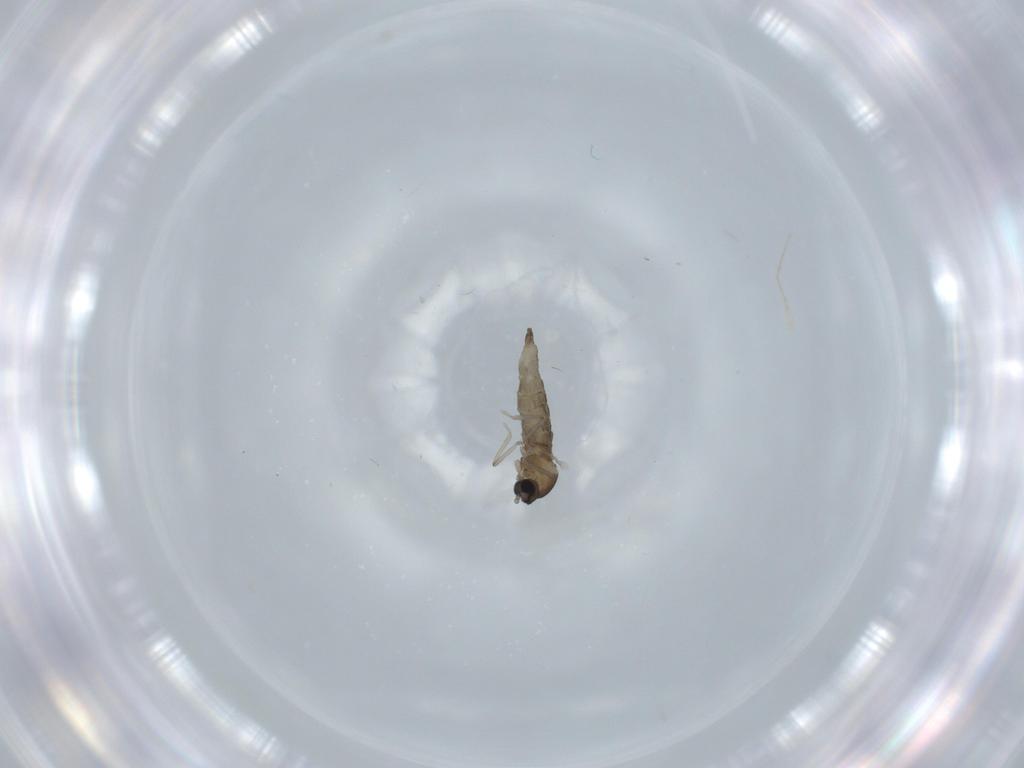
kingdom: Animalia
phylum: Arthropoda
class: Insecta
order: Diptera
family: Cecidomyiidae
